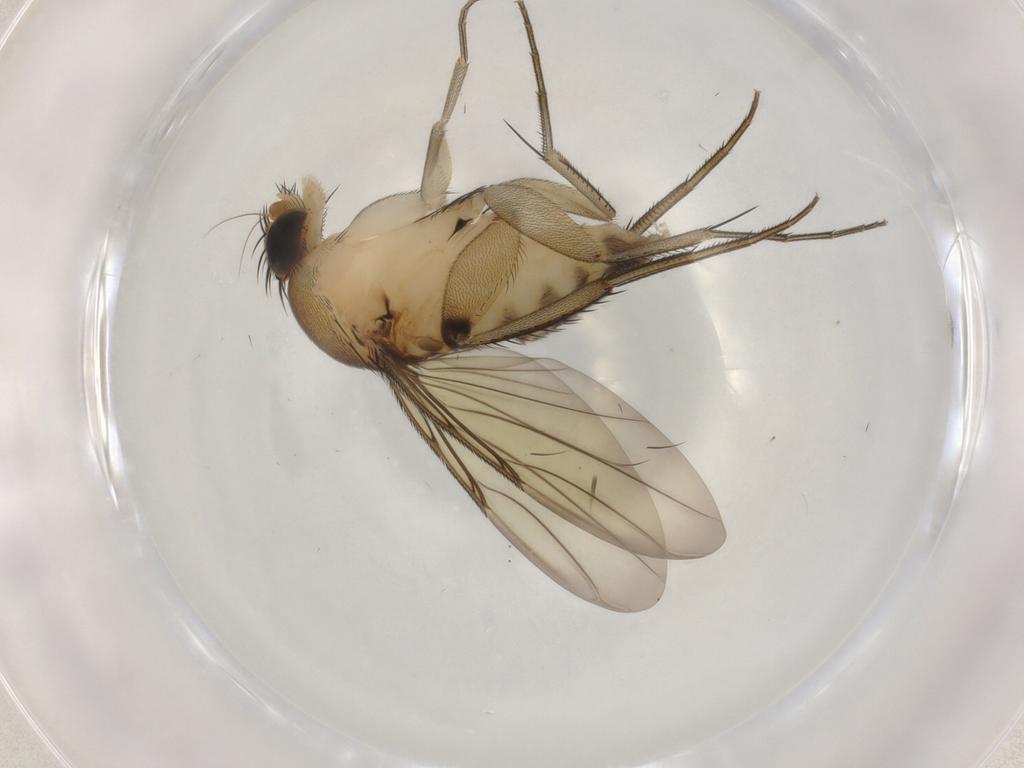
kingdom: Animalia
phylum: Arthropoda
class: Insecta
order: Diptera
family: Phoridae
